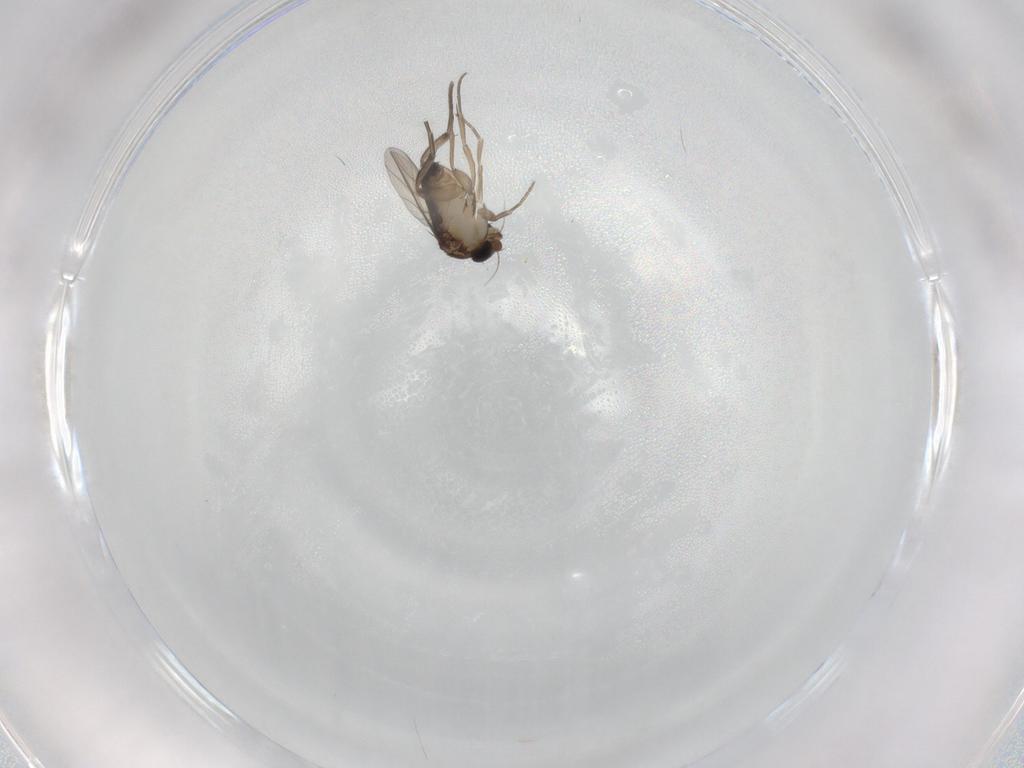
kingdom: Animalia
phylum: Arthropoda
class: Insecta
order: Diptera
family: Phoridae
